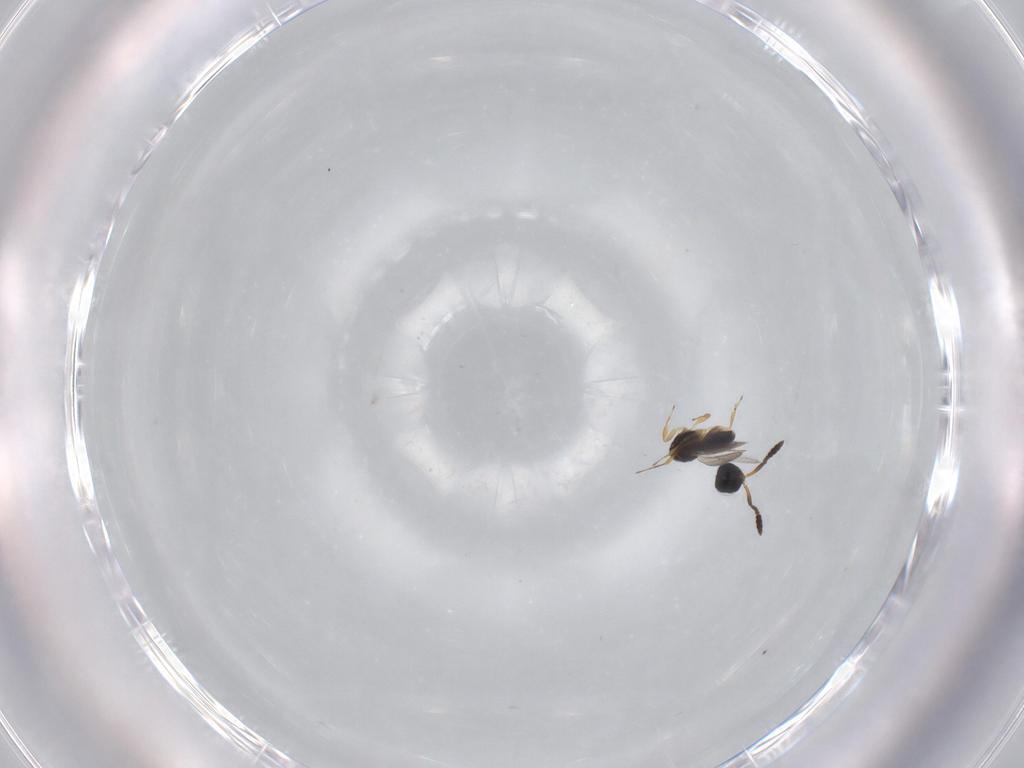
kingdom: Animalia
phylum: Arthropoda
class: Insecta
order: Hymenoptera
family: Scelionidae
